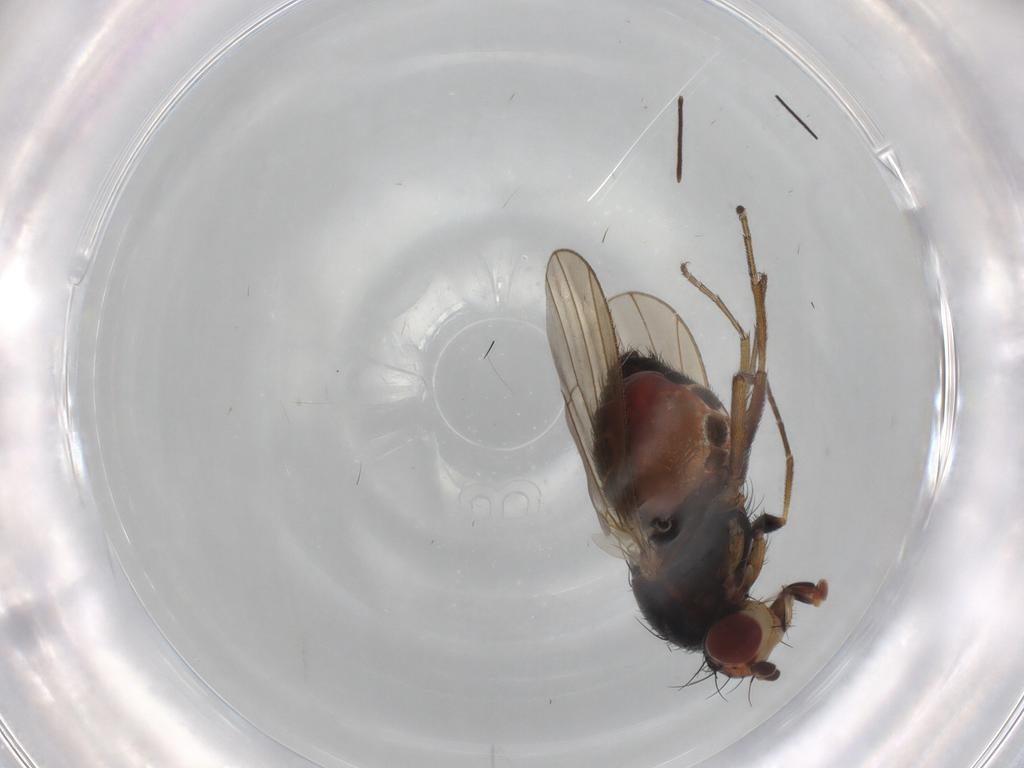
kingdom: Animalia
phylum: Arthropoda
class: Insecta
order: Diptera
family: Heleomyzidae
